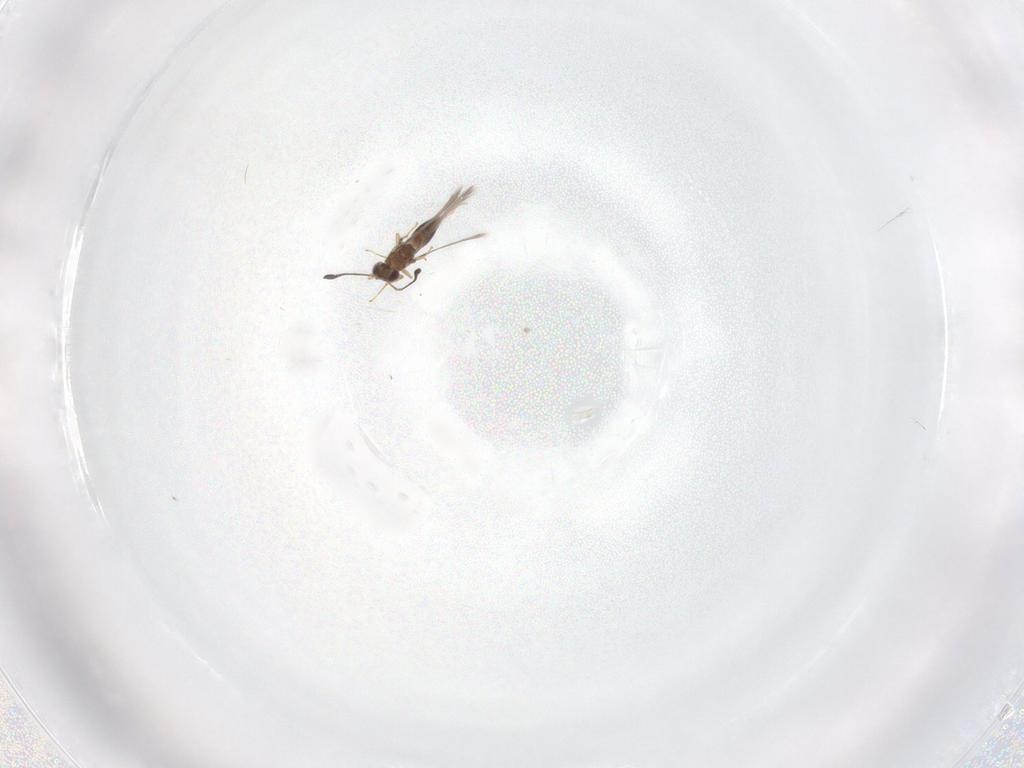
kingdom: Animalia
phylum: Arthropoda
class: Insecta
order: Hymenoptera
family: Mymaridae
